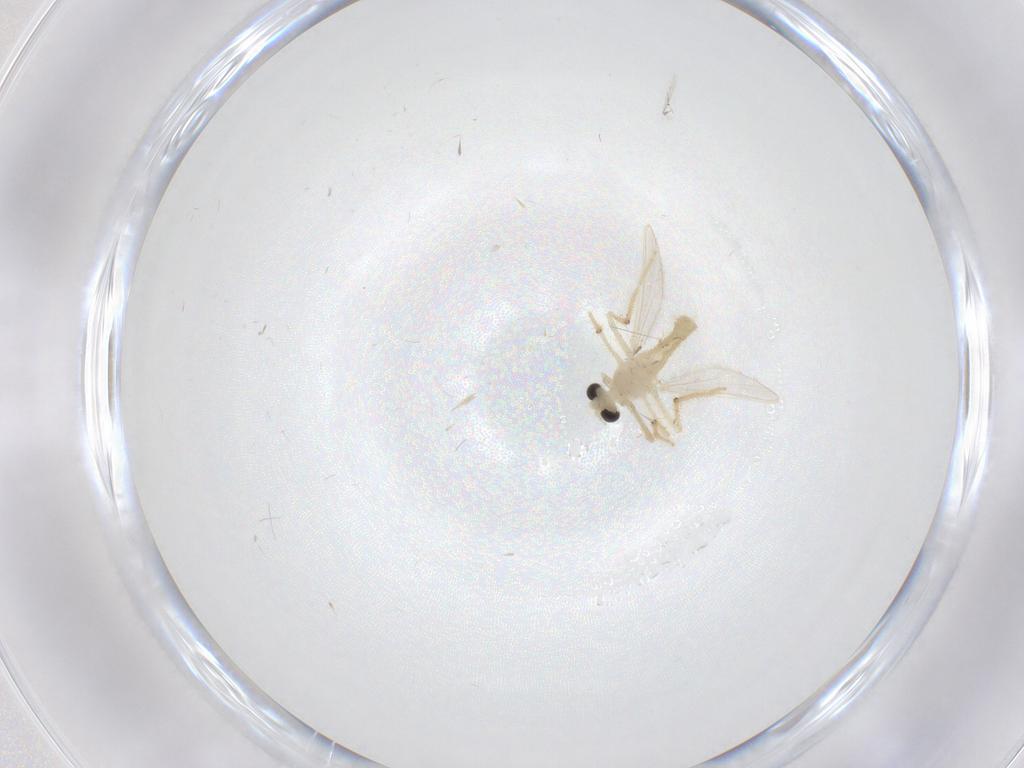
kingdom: Animalia
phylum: Arthropoda
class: Insecta
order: Diptera
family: Chironomidae
